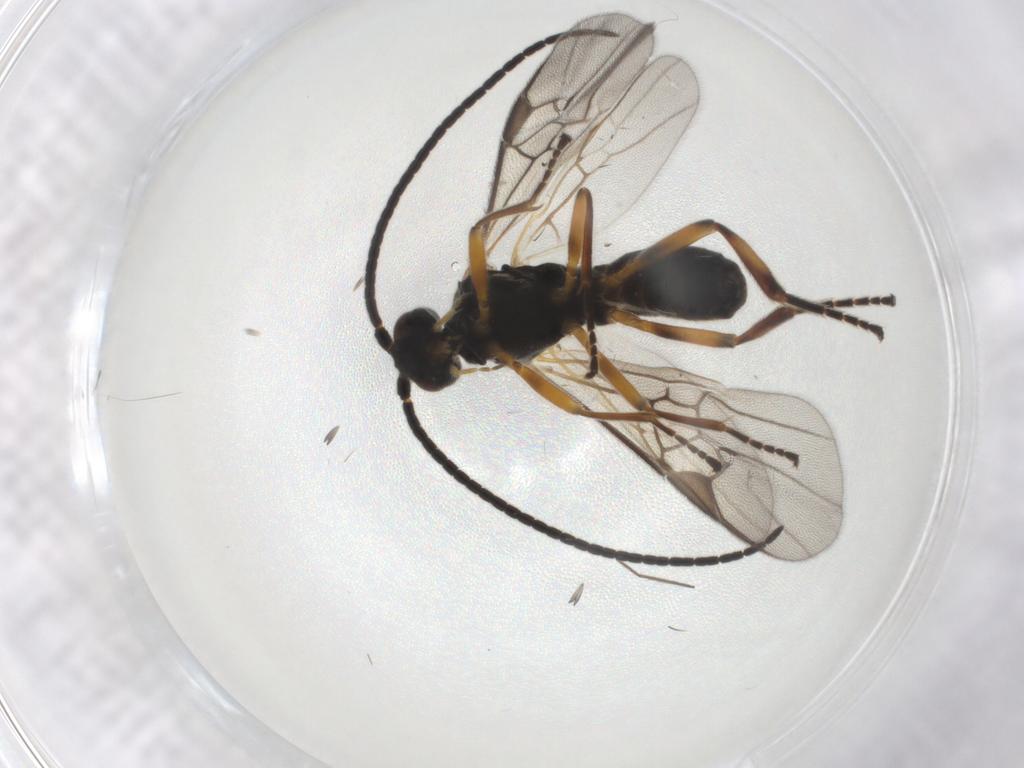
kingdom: Animalia
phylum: Arthropoda
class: Insecta
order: Hymenoptera
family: Braconidae
